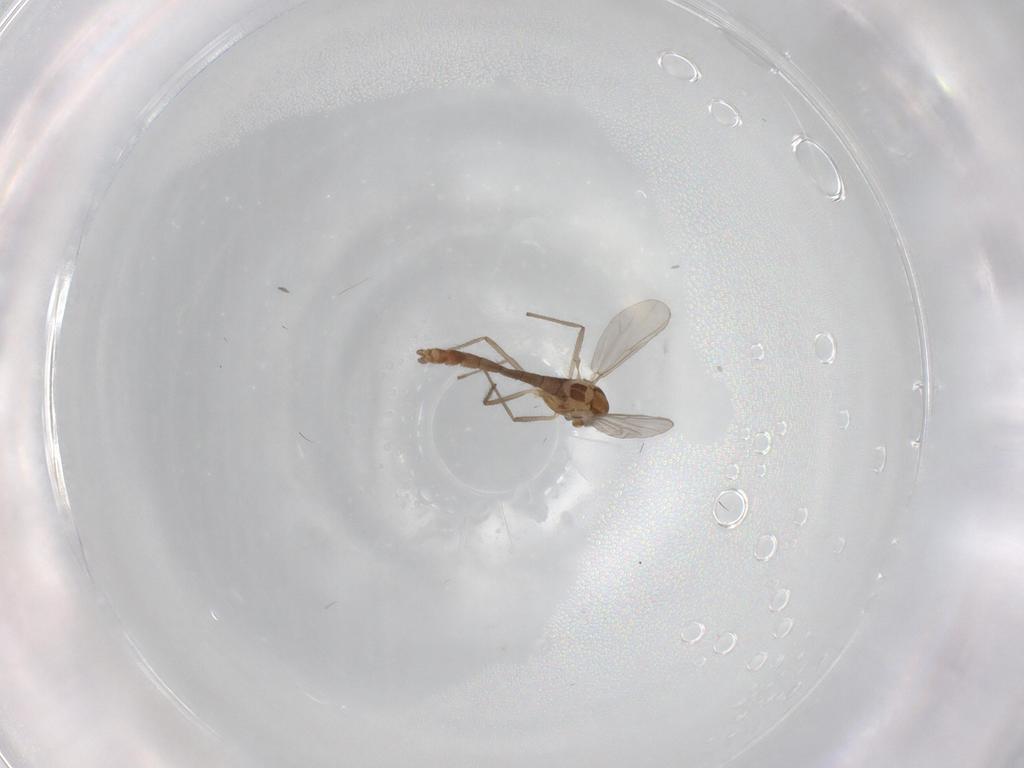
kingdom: Animalia
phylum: Arthropoda
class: Insecta
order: Diptera
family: Chironomidae
